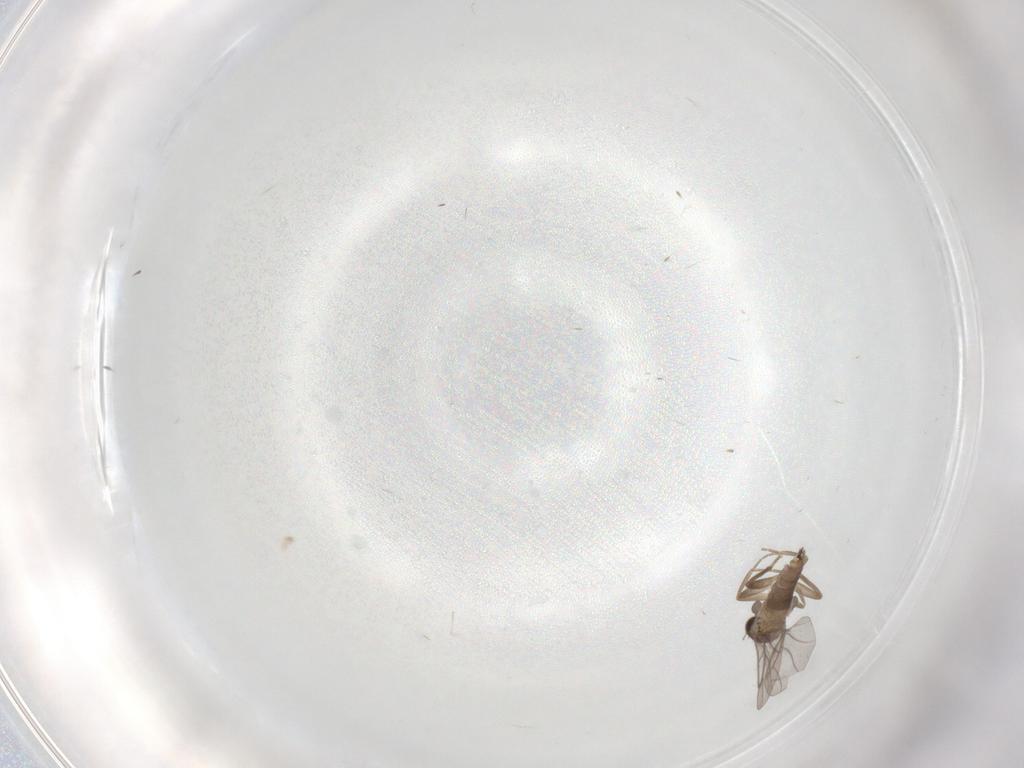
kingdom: Animalia
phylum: Arthropoda
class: Insecta
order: Diptera
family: Cecidomyiidae
